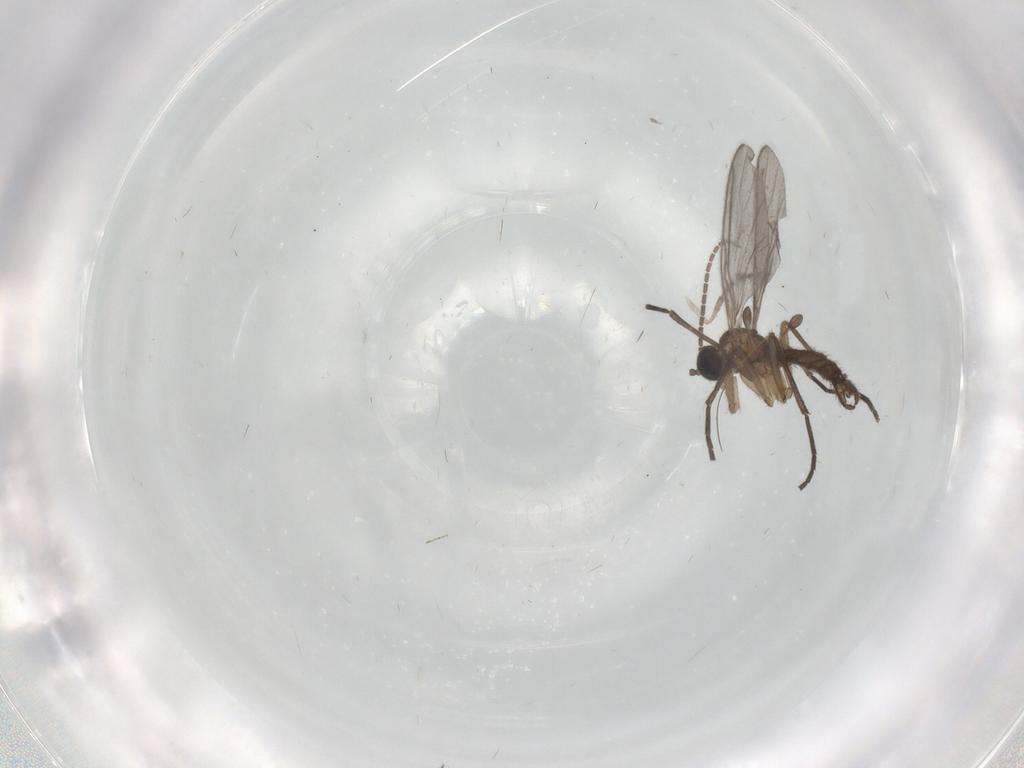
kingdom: Animalia
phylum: Arthropoda
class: Insecta
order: Diptera
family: Sciaridae
